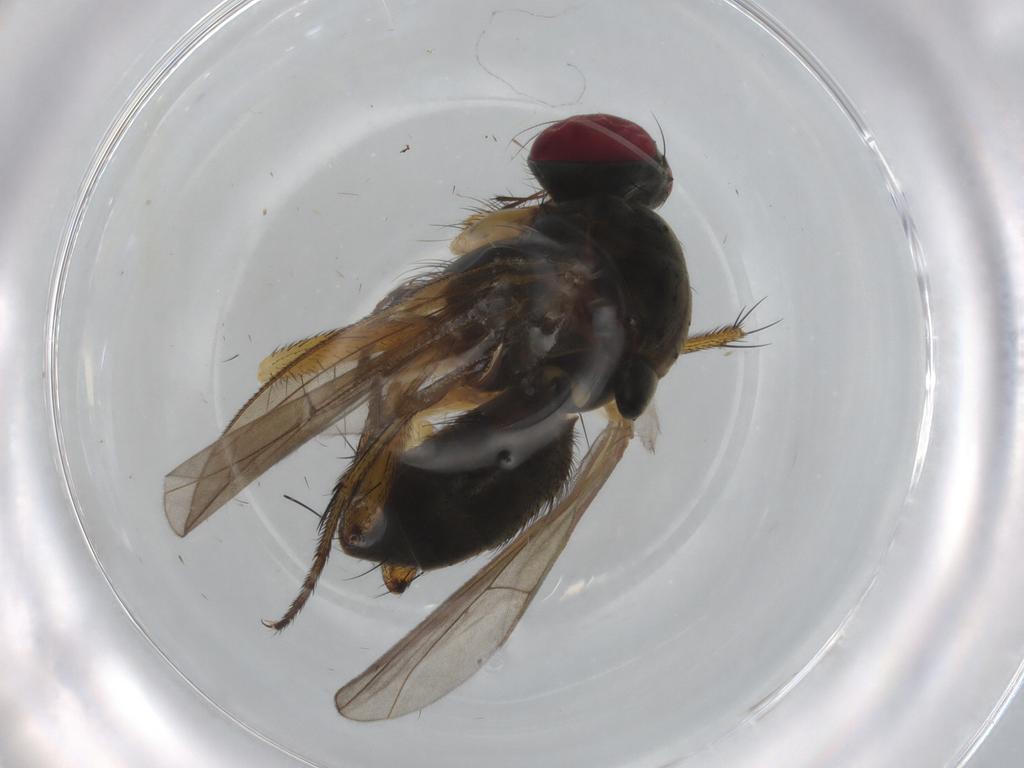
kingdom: Animalia
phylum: Arthropoda
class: Insecta
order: Diptera
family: Muscidae
